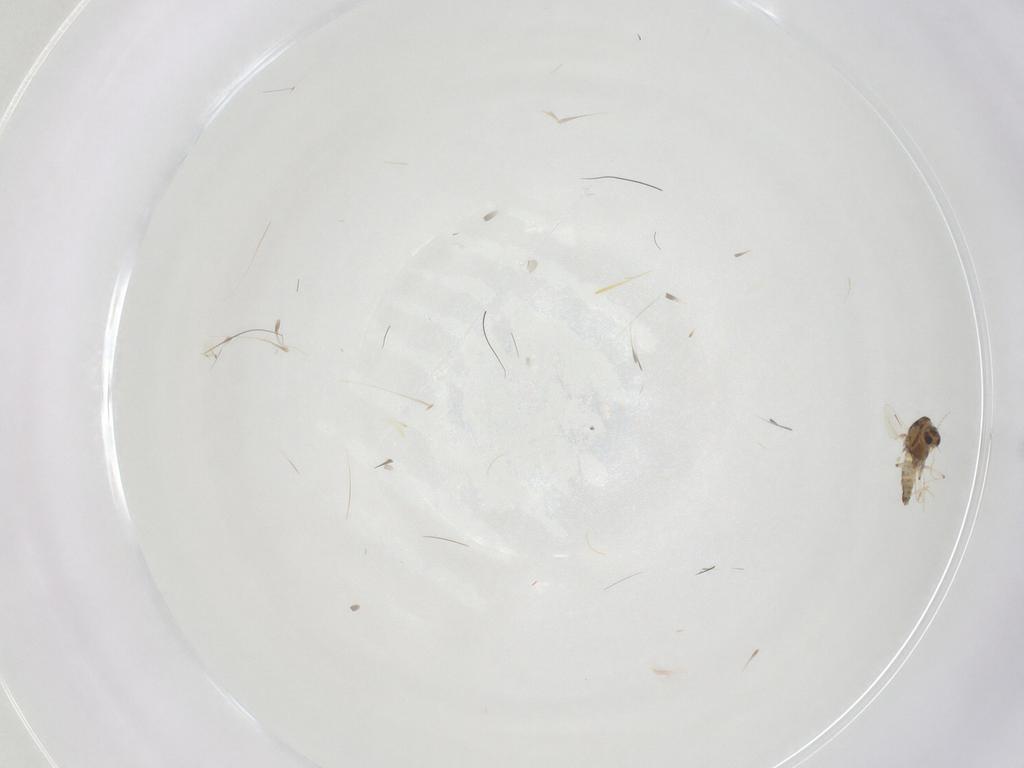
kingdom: Animalia
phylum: Arthropoda
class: Insecta
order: Diptera
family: Chironomidae
